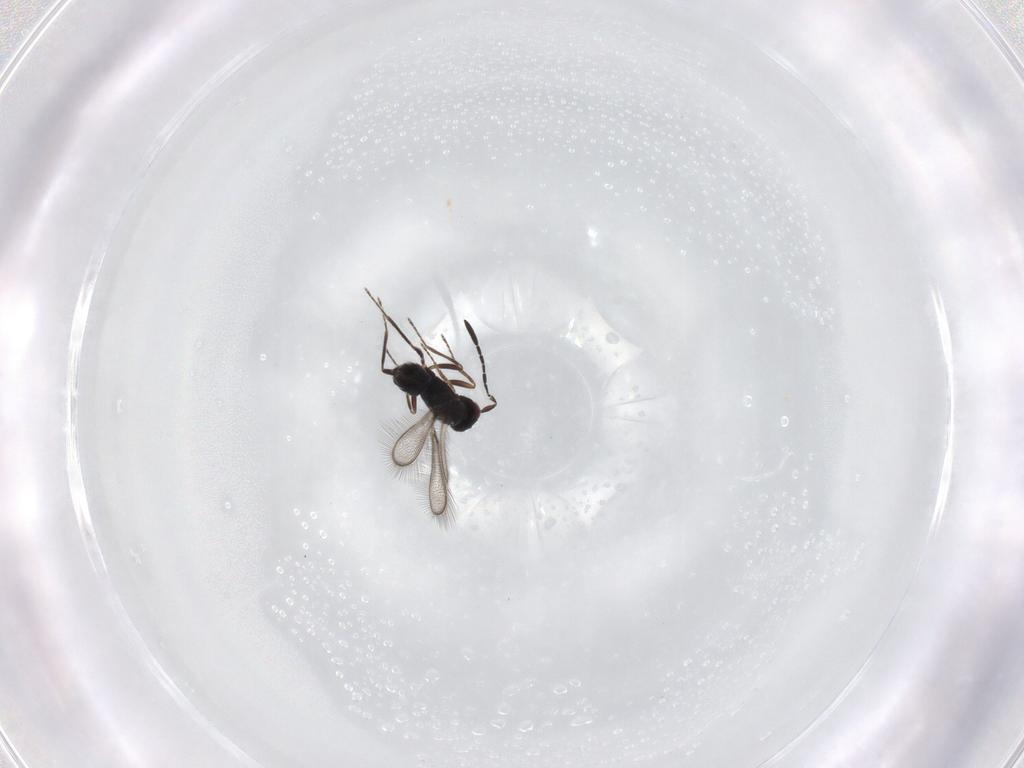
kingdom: Animalia
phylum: Arthropoda
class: Insecta
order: Hymenoptera
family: Mymaridae
